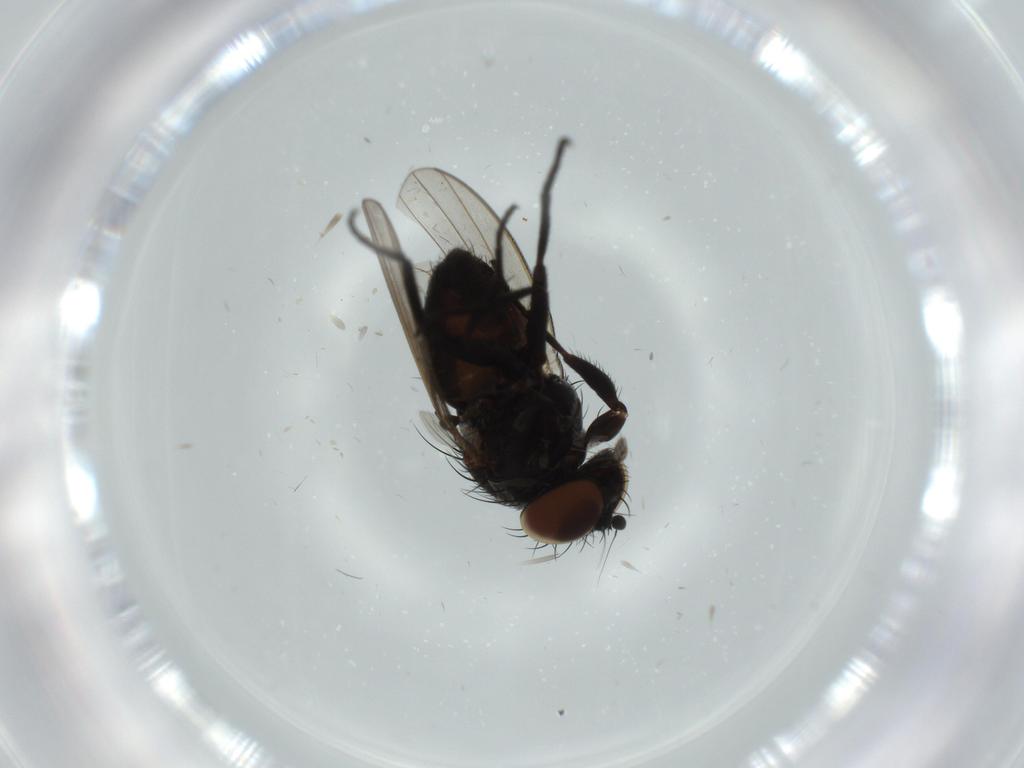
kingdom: Animalia
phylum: Arthropoda
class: Insecta
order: Diptera
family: Milichiidae
